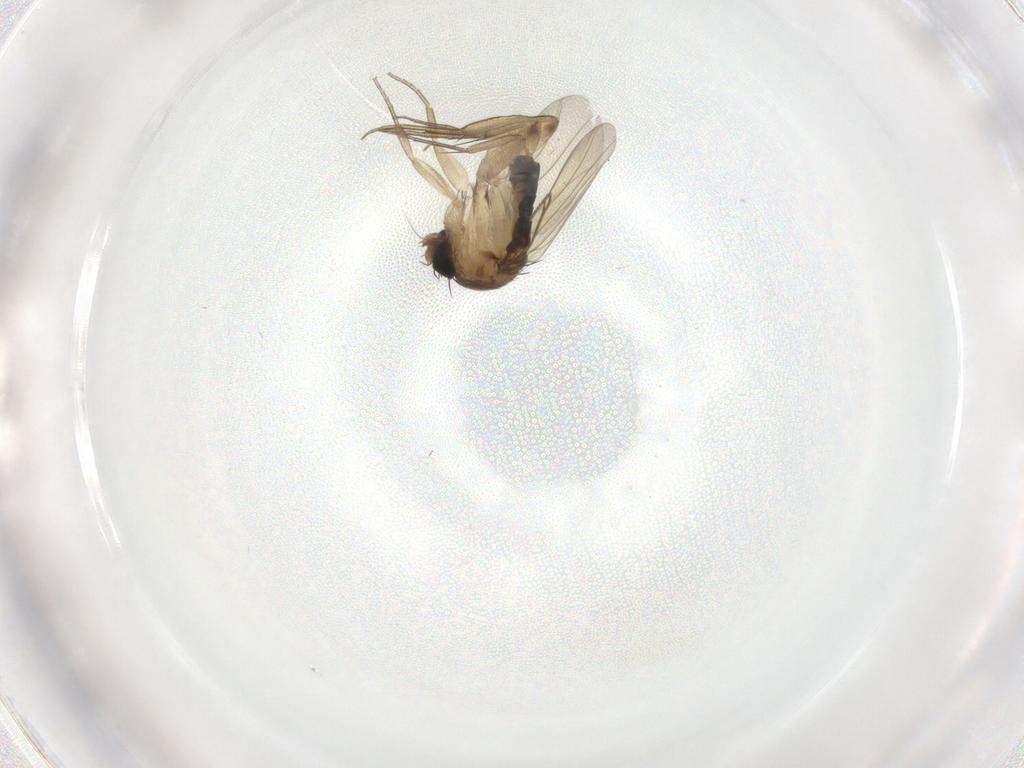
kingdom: Animalia
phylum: Arthropoda
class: Insecta
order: Diptera
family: Phoridae
